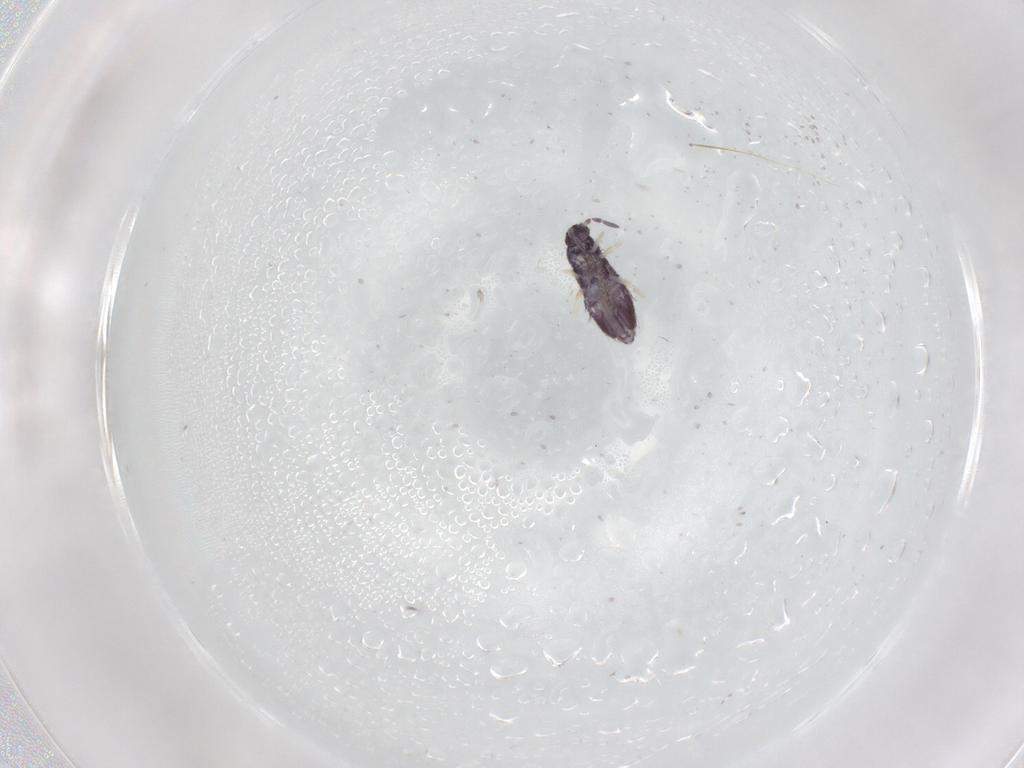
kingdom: Animalia
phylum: Arthropoda
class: Collembola
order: Entomobryomorpha
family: Entomobryidae
